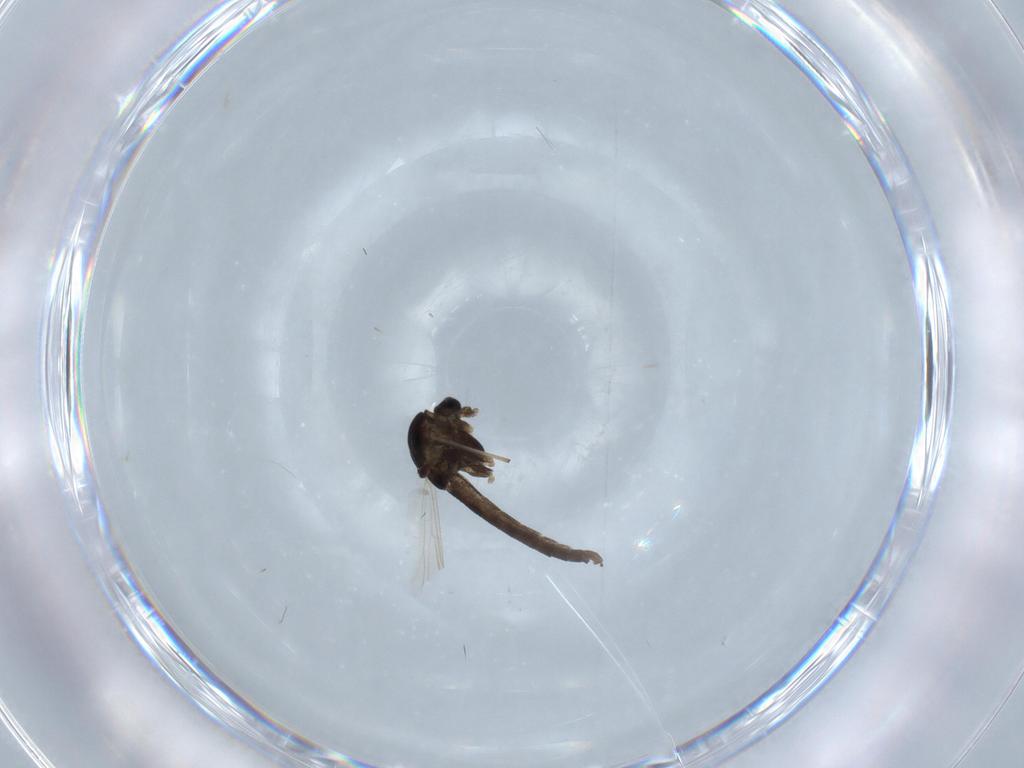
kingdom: Animalia
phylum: Arthropoda
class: Insecta
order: Diptera
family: Chironomidae
